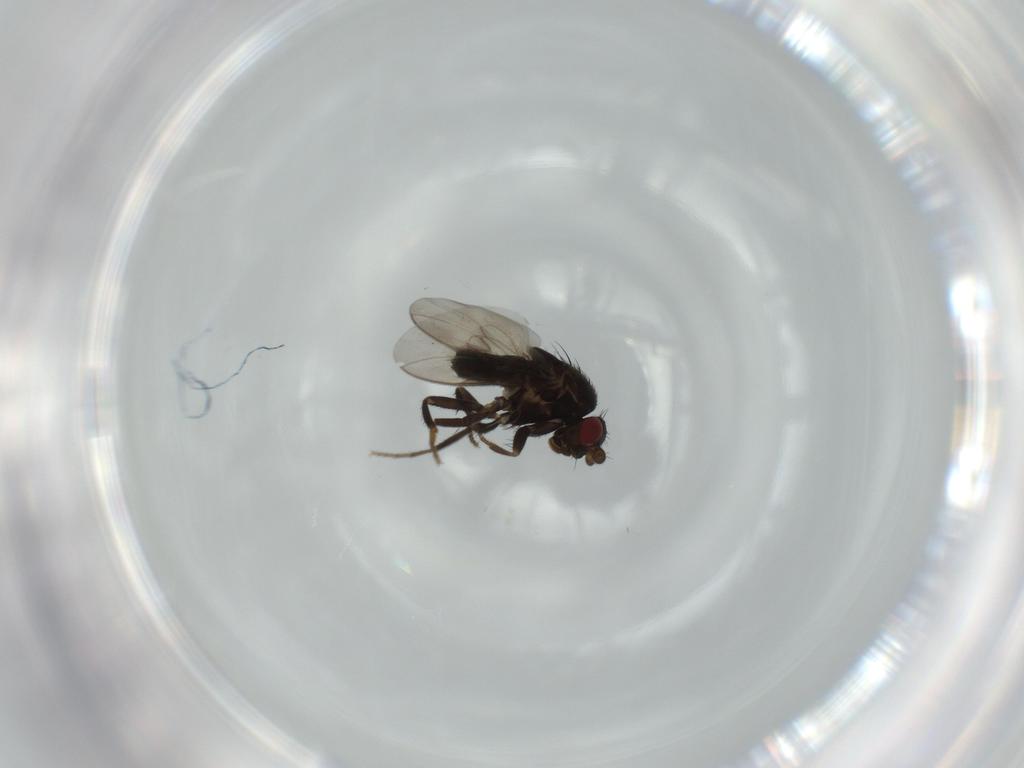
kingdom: Animalia
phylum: Arthropoda
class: Insecta
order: Diptera
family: Sphaeroceridae
